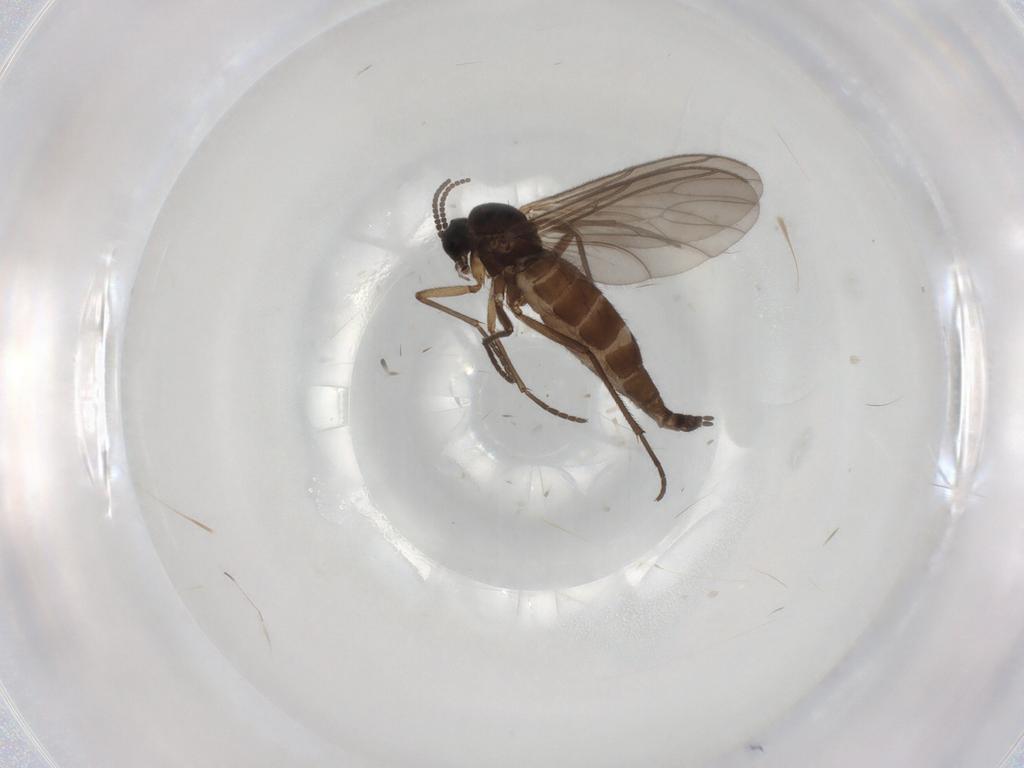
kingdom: Animalia
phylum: Arthropoda
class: Insecta
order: Diptera
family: Sciaridae
